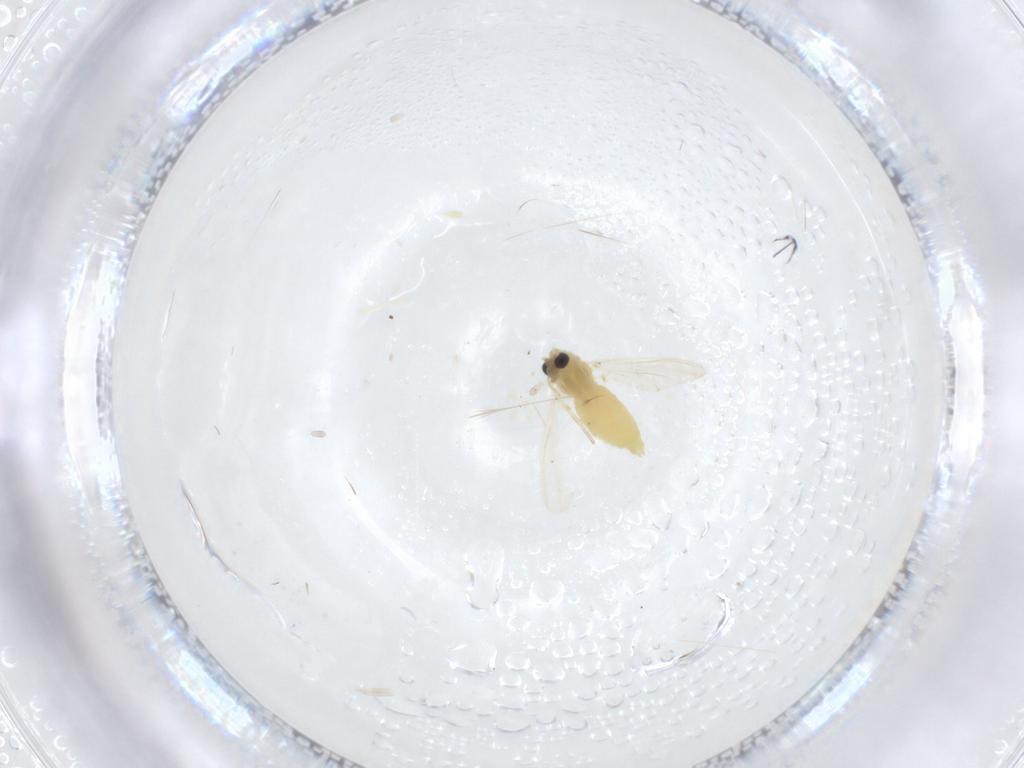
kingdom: Animalia
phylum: Arthropoda
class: Insecta
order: Diptera
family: Chironomidae
